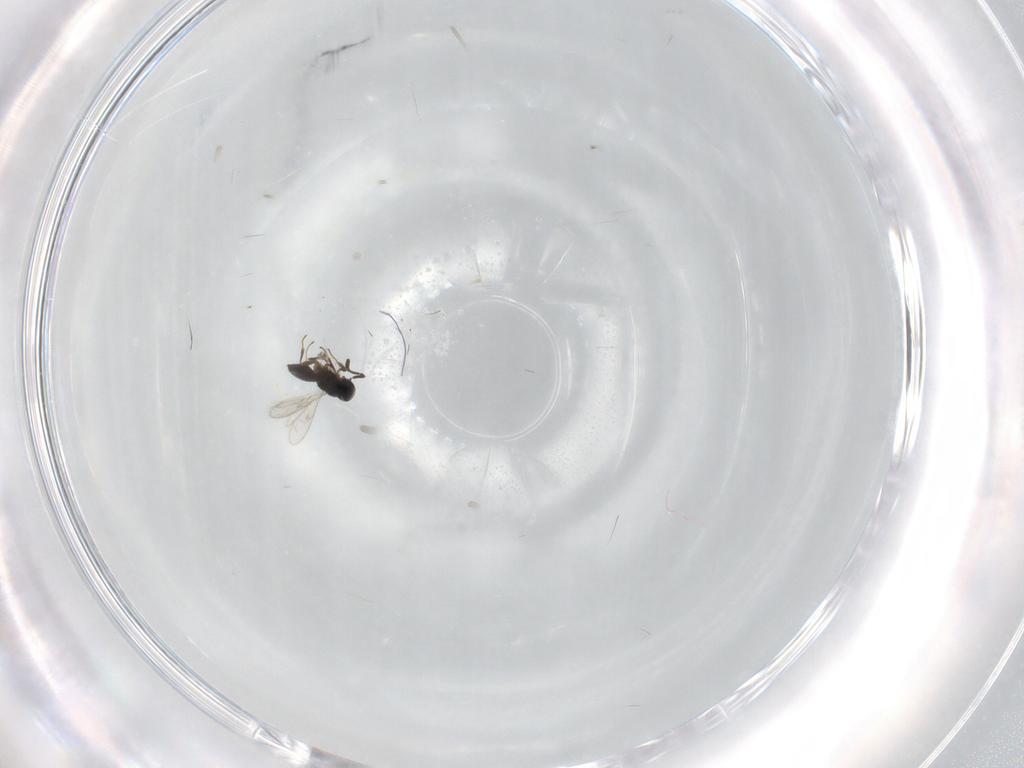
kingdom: Animalia
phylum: Arthropoda
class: Insecta
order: Hymenoptera
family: Scelionidae
